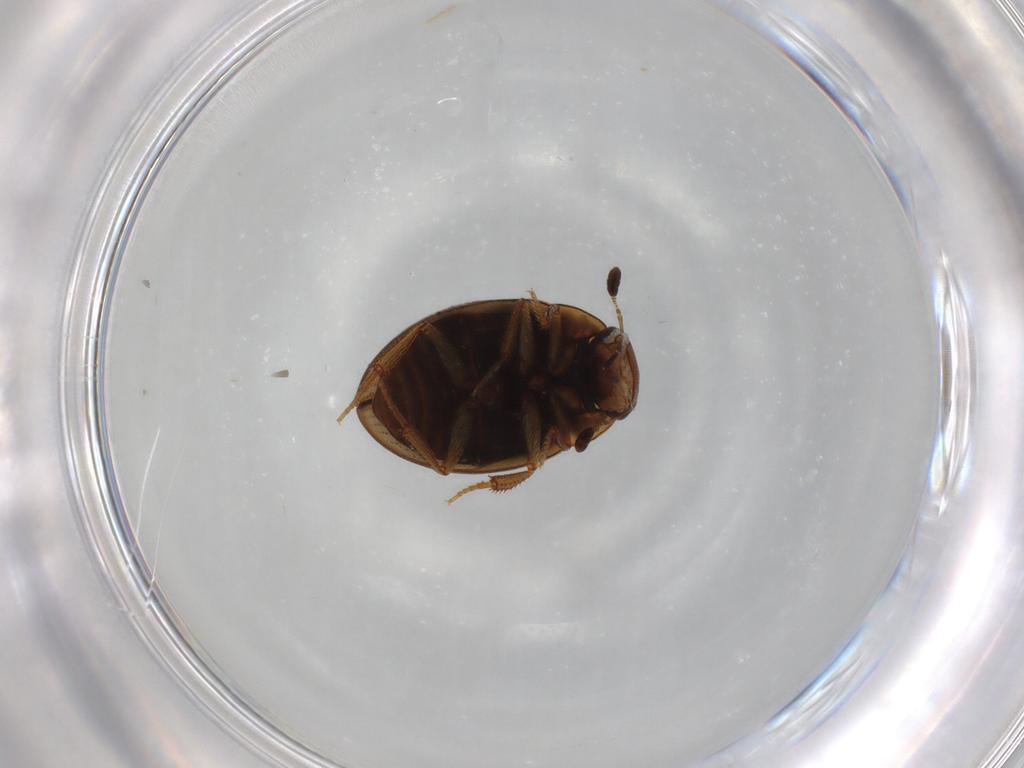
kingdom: Animalia
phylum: Arthropoda
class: Insecta
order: Coleoptera
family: Hydrophilidae
